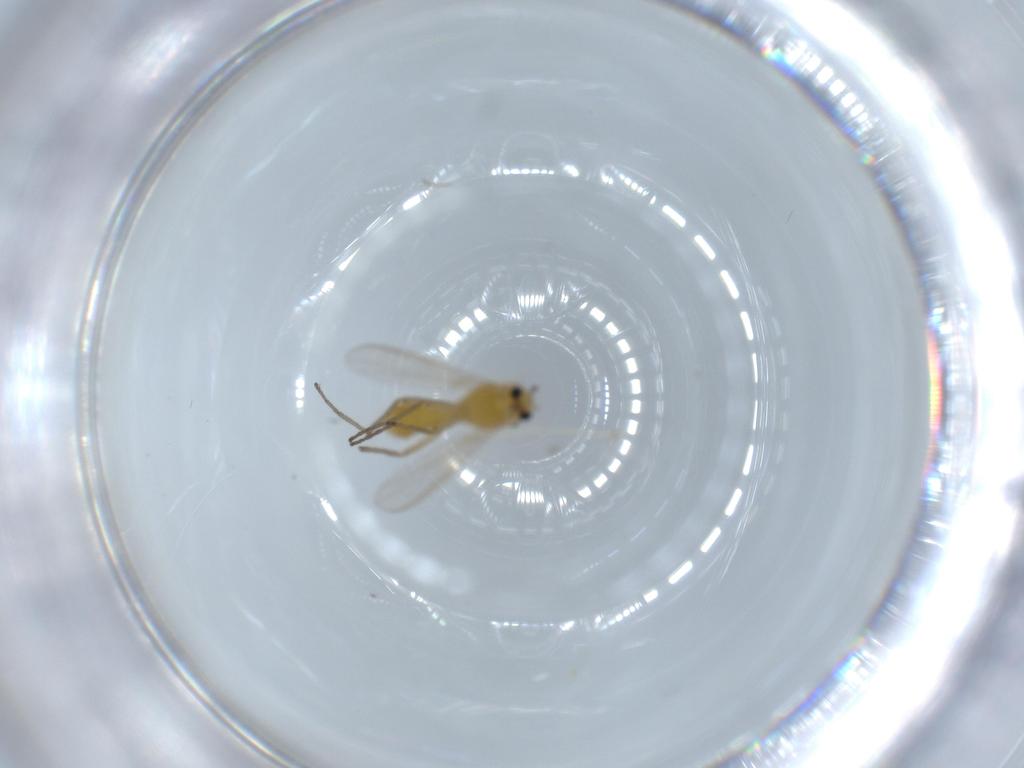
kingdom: Animalia
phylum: Arthropoda
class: Insecta
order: Diptera
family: Chironomidae
